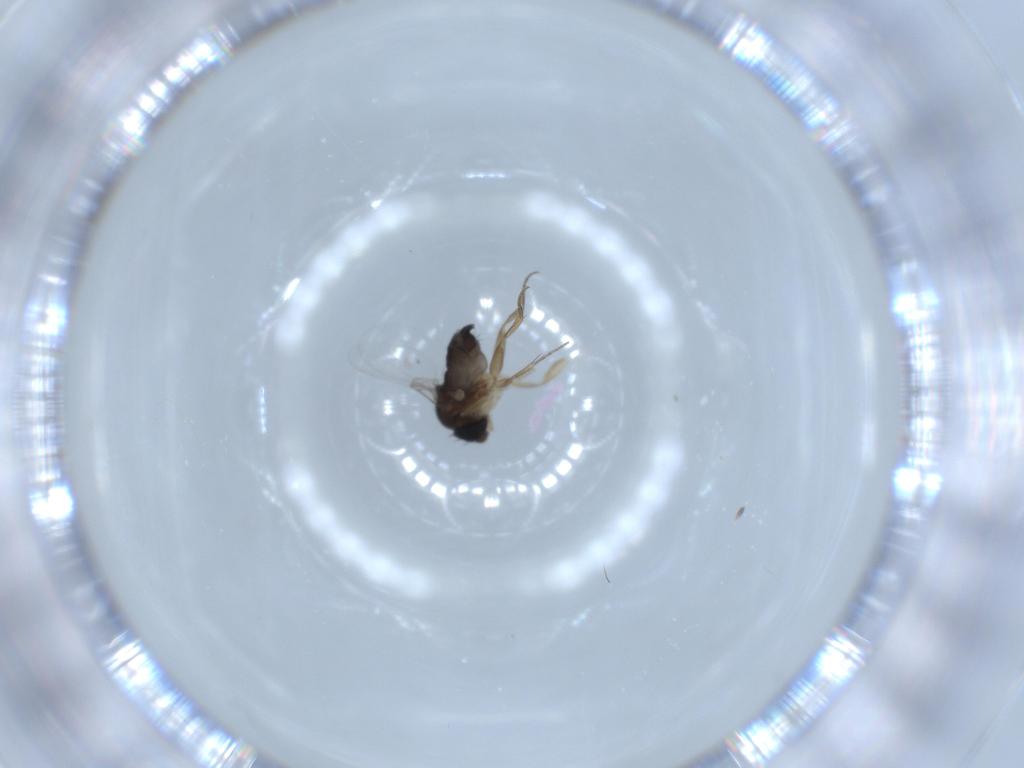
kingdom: Animalia
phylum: Arthropoda
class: Insecta
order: Diptera
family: Phoridae
